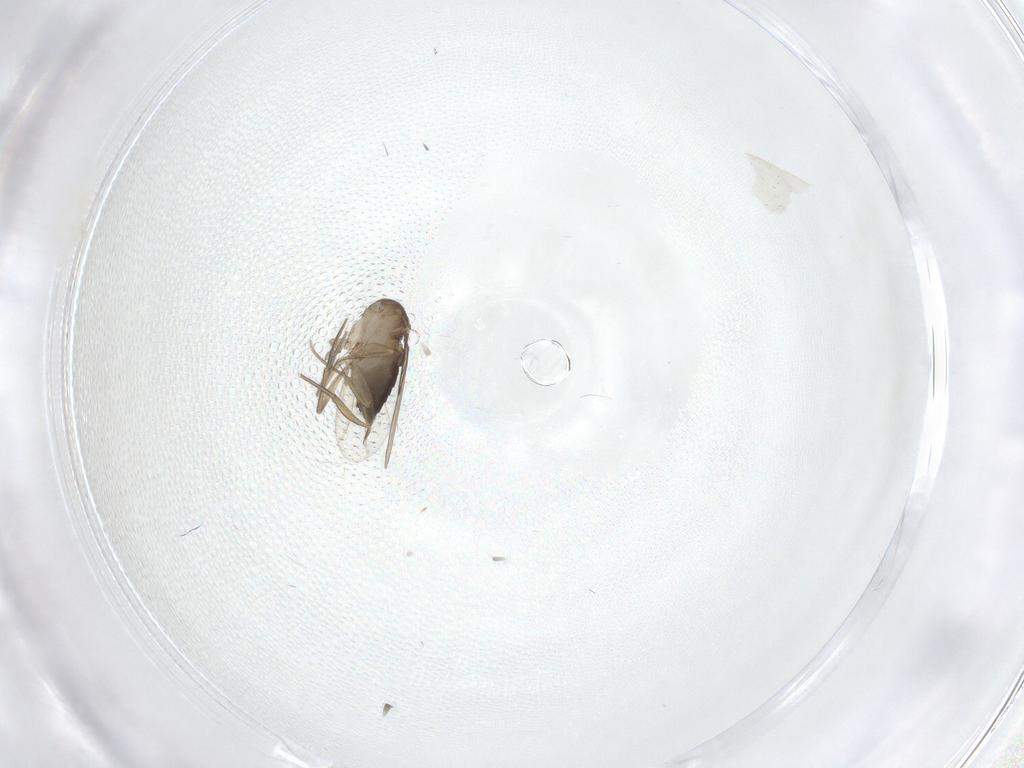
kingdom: Animalia
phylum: Arthropoda
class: Insecta
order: Diptera
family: Chironomidae
